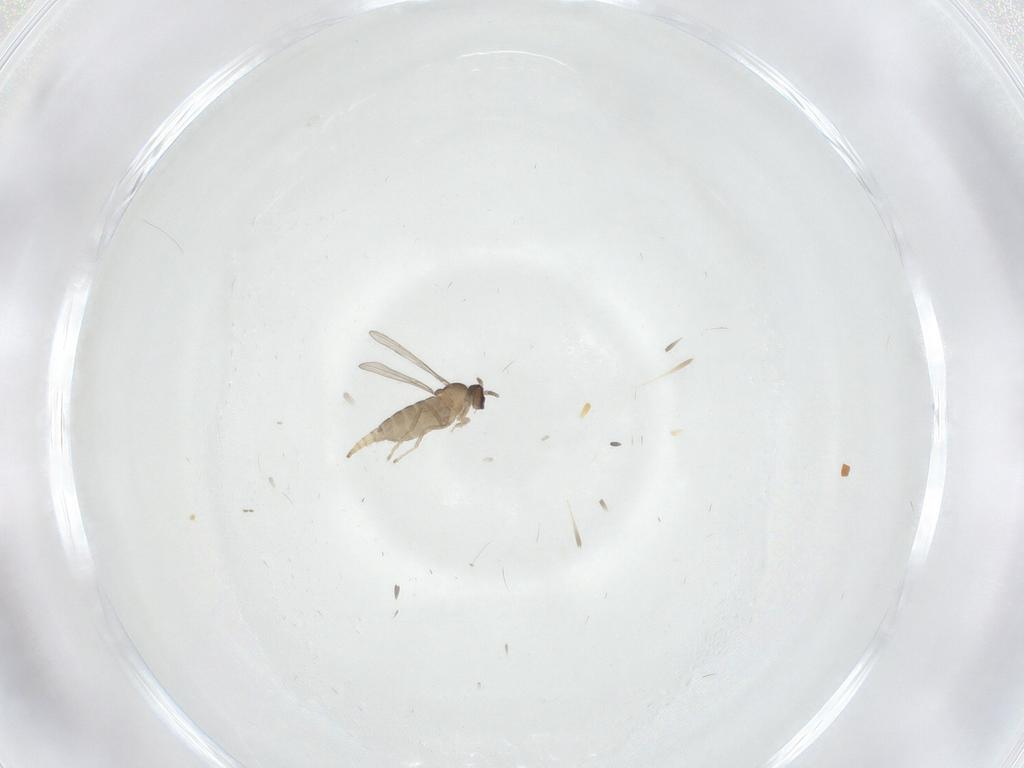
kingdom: Animalia
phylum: Arthropoda
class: Insecta
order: Diptera
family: Cecidomyiidae
